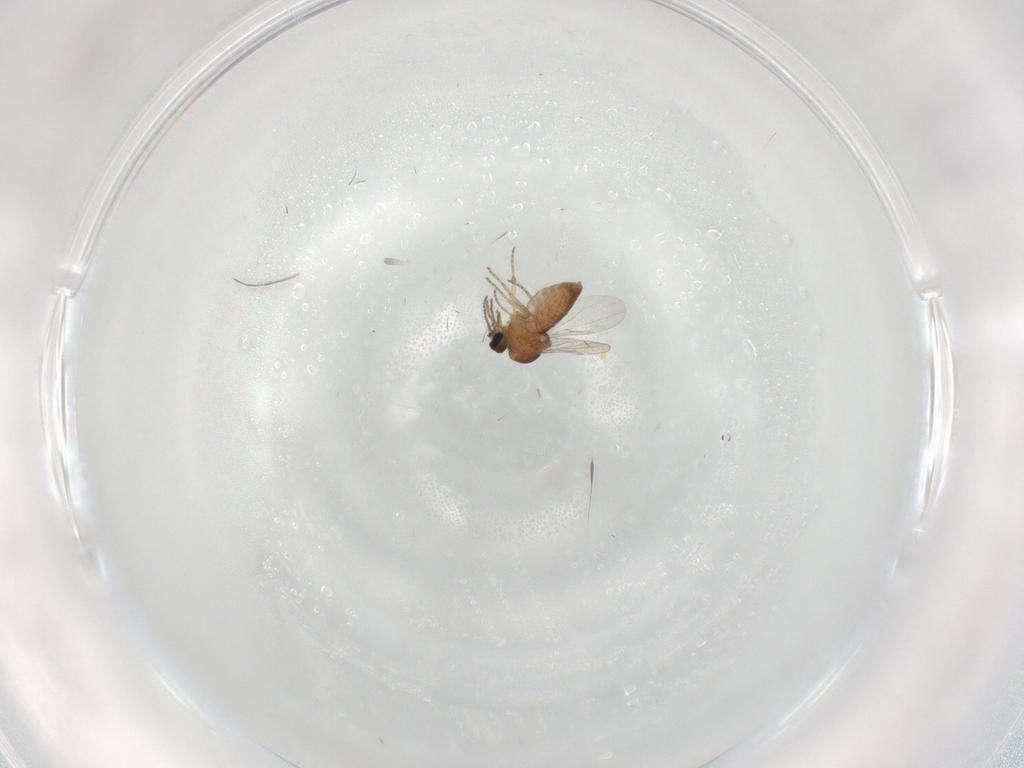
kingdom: Animalia
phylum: Arthropoda
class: Insecta
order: Diptera
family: Ceratopogonidae
